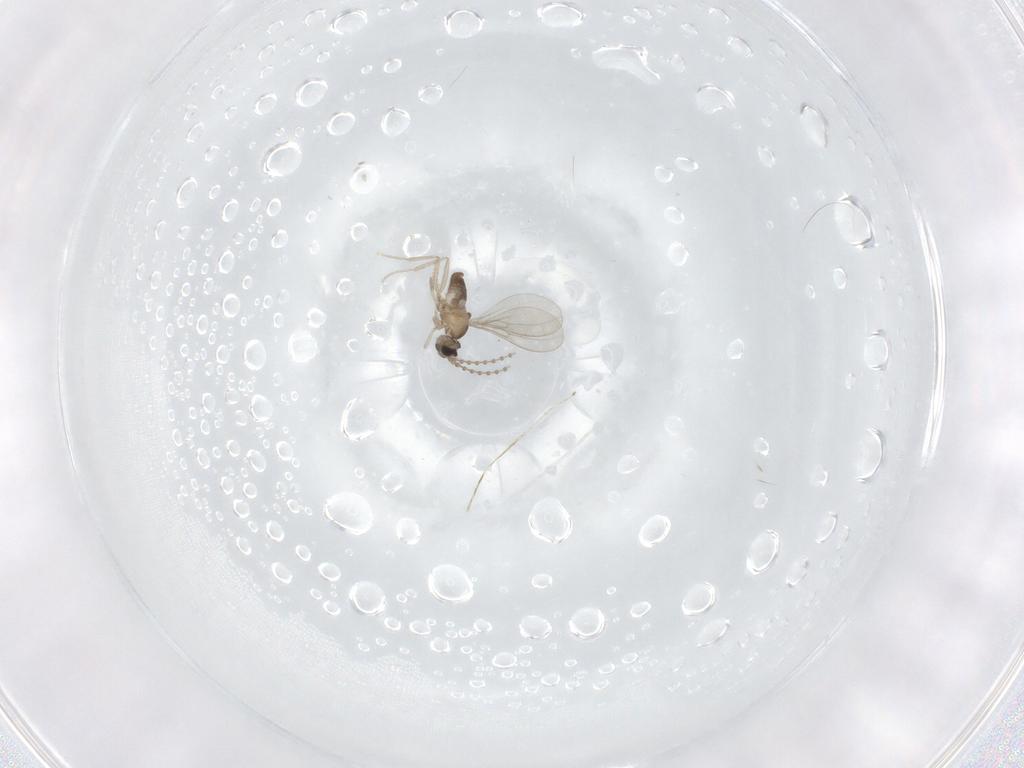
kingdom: Animalia
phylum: Arthropoda
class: Insecta
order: Diptera
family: Cecidomyiidae
